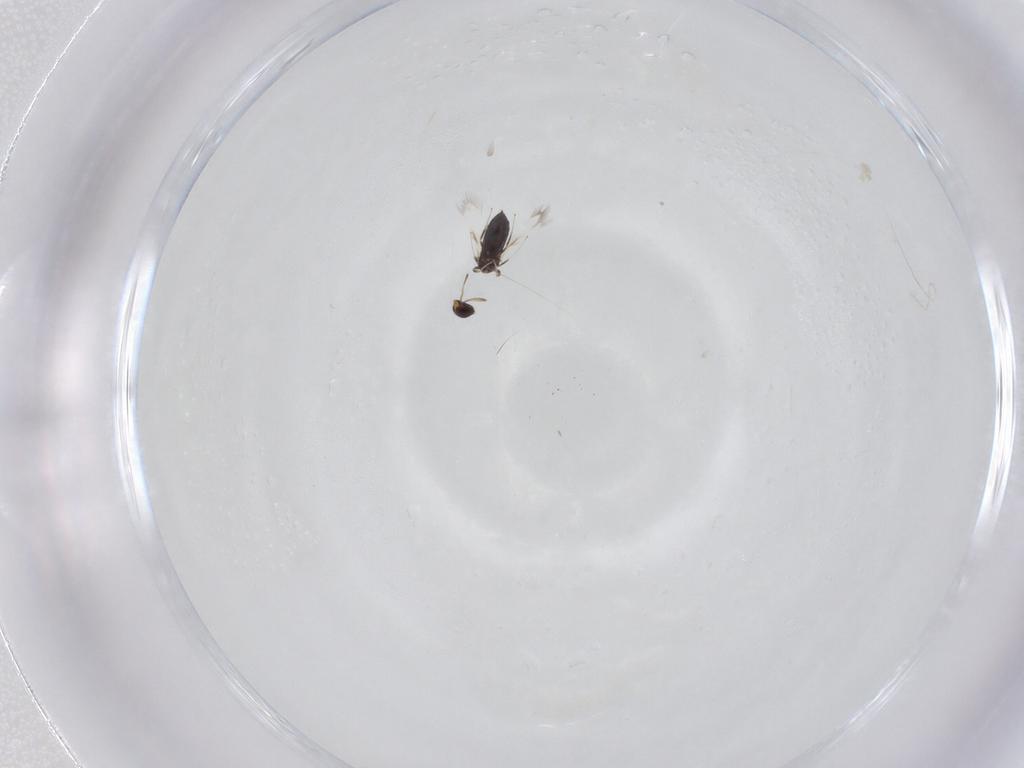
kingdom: Animalia
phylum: Arthropoda
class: Insecta
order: Hymenoptera
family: Signiphoridae
